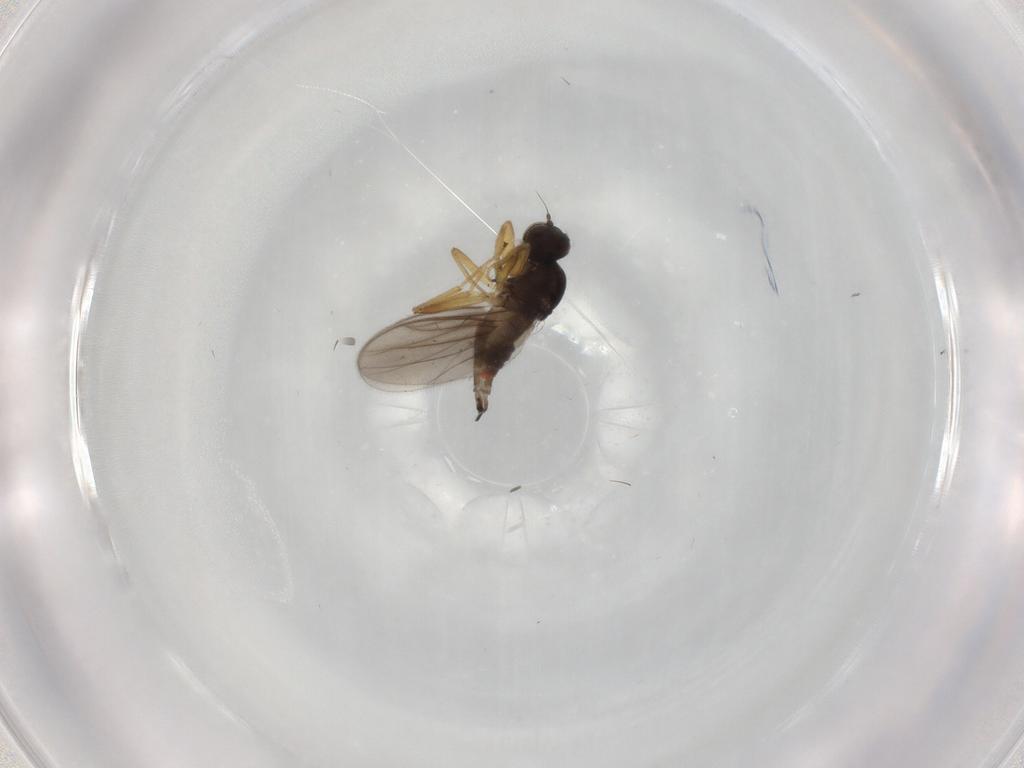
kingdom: Animalia
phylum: Arthropoda
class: Insecta
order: Diptera
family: Hybotidae
